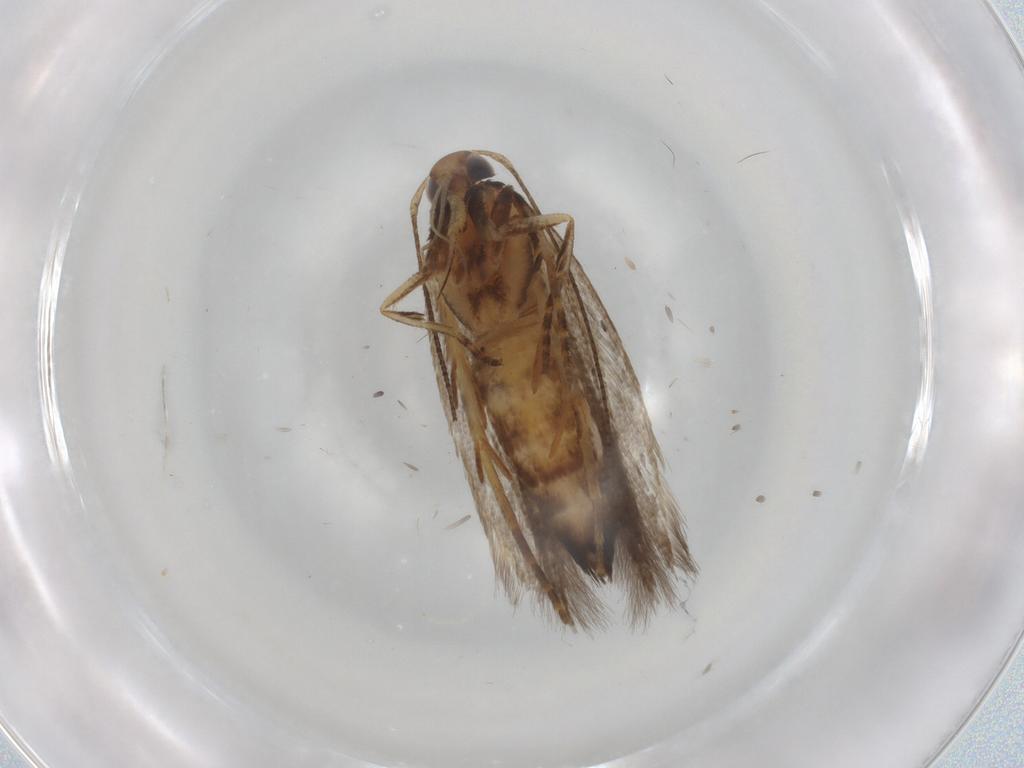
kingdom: Animalia
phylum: Arthropoda
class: Insecta
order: Lepidoptera
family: Gelechiidae
